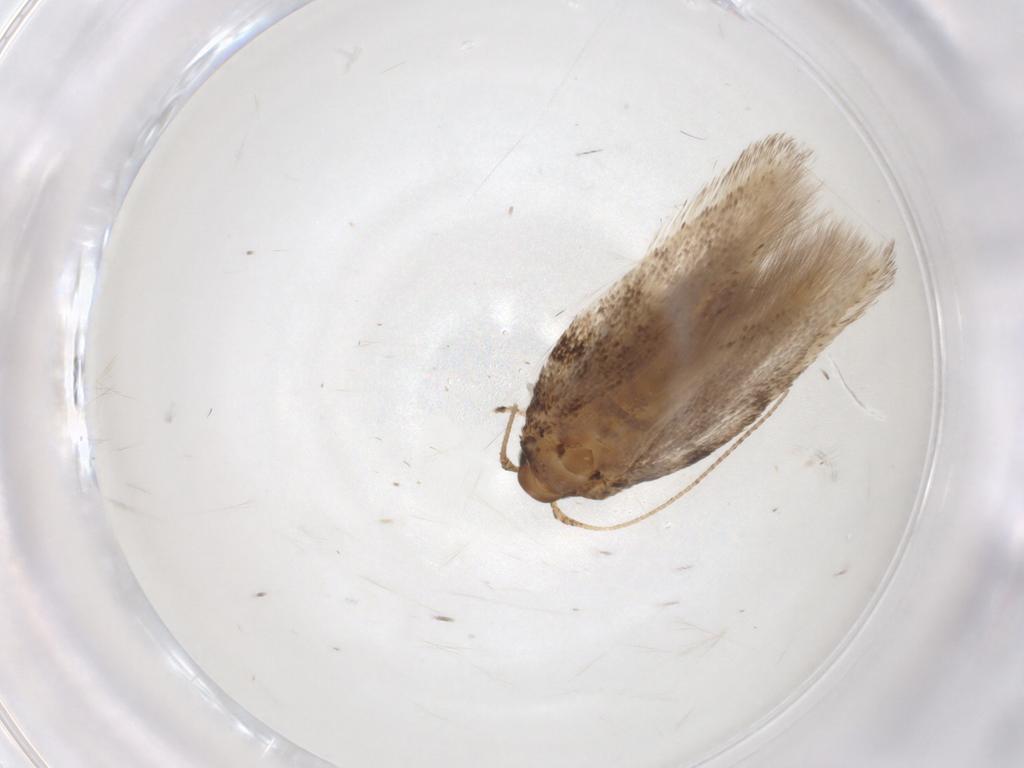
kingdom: Animalia
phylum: Arthropoda
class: Insecta
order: Lepidoptera
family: Gelechiidae
